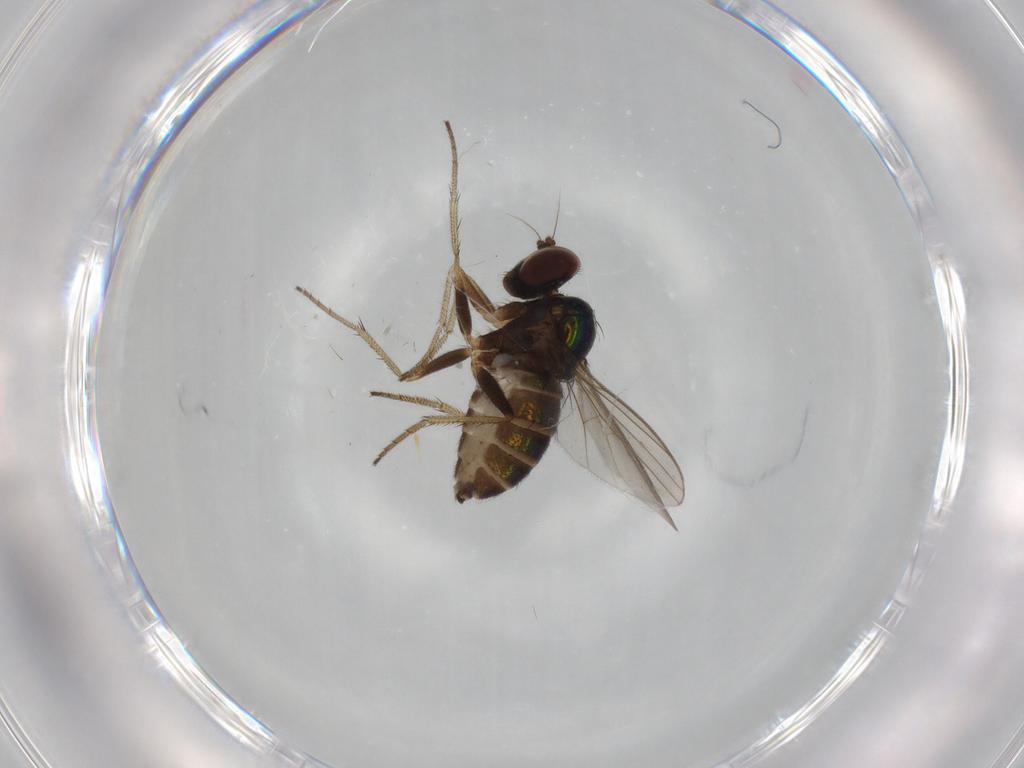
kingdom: Animalia
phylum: Arthropoda
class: Insecta
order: Diptera
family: Dolichopodidae
